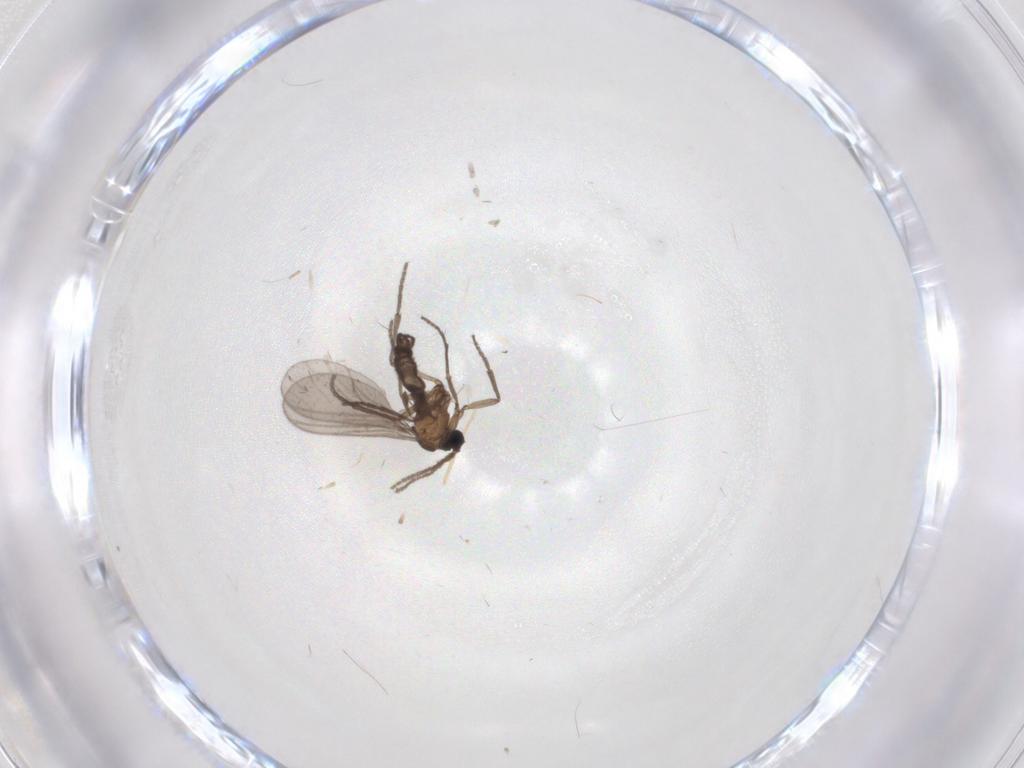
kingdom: Animalia
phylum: Arthropoda
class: Insecta
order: Diptera
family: Sciaridae
